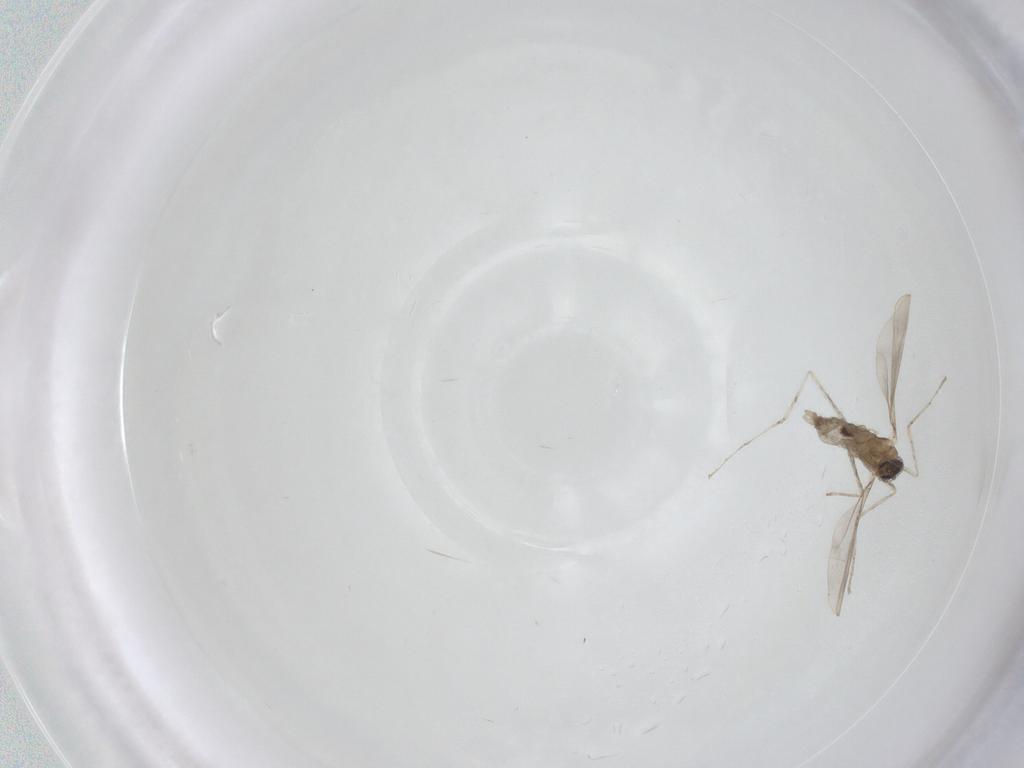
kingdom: Animalia
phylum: Arthropoda
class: Insecta
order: Diptera
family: Cecidomyiidae
